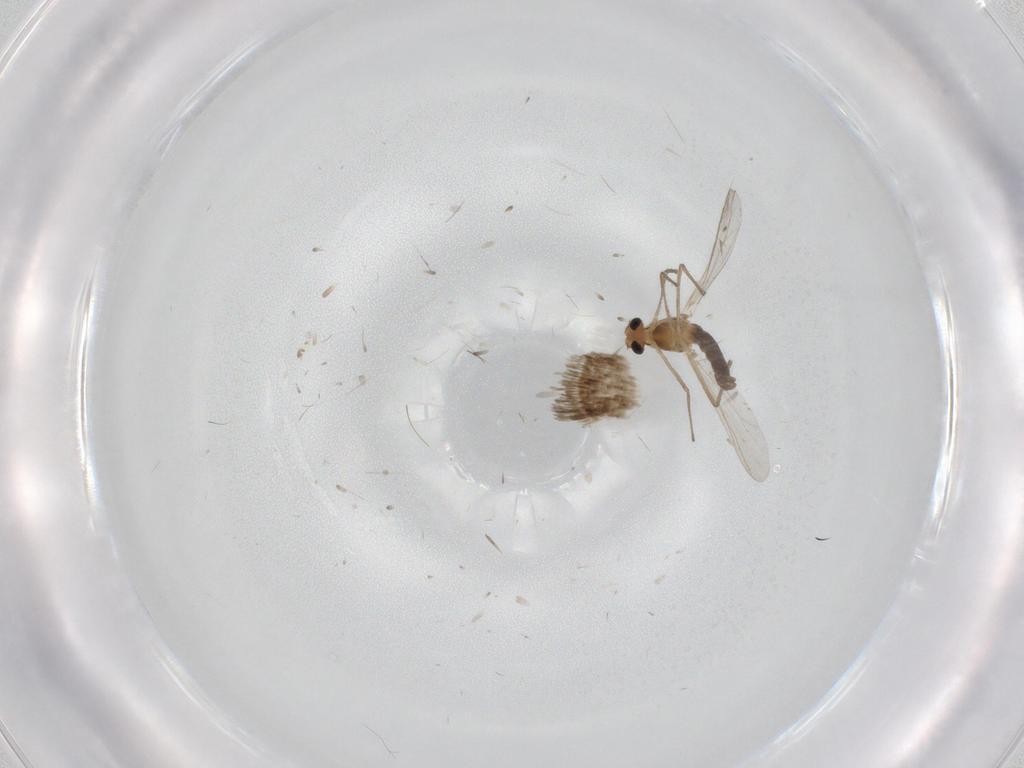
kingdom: Animalia
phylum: Arthropoda
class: Insecta
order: Diptera
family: Chironomidae
